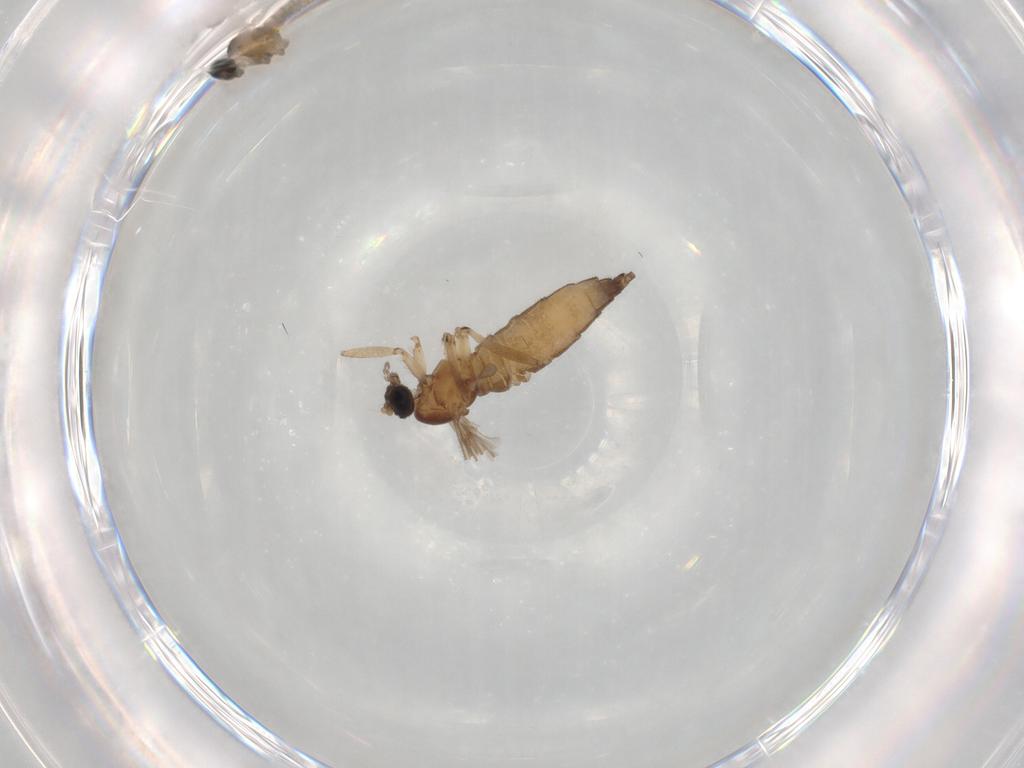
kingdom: Animalia
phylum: Arthropoda
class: Insecta
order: Diptera
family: Sciaridae
